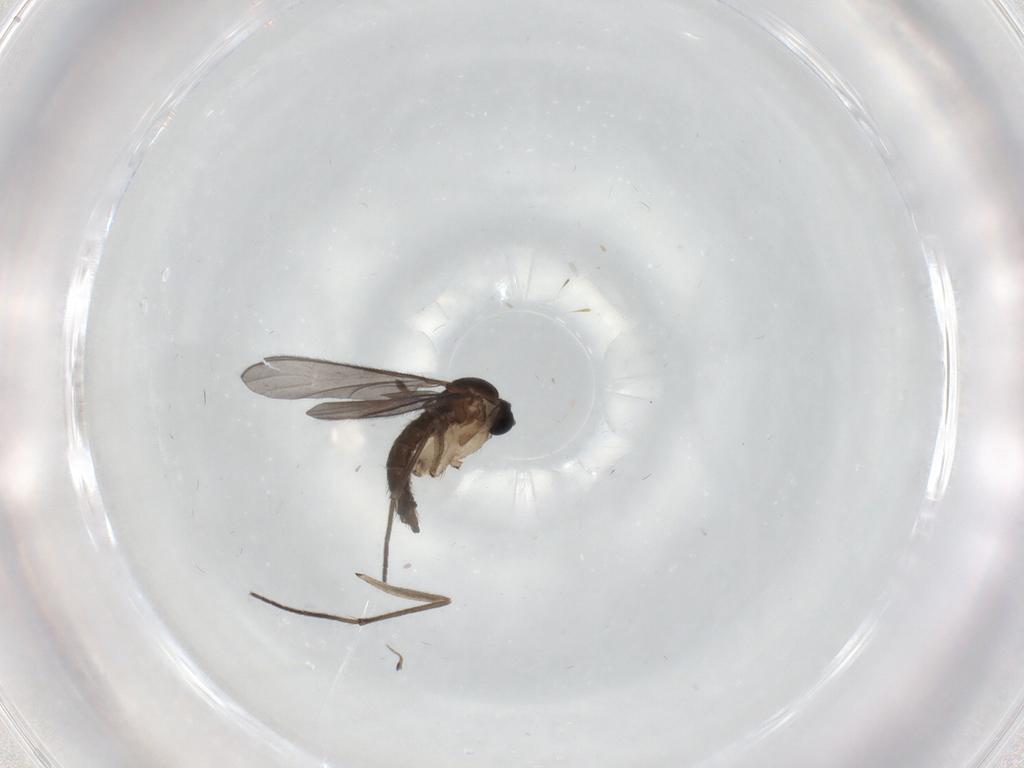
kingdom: Animalia
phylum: Arthropoda
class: Insecta
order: Diptera
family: Sciaridae
